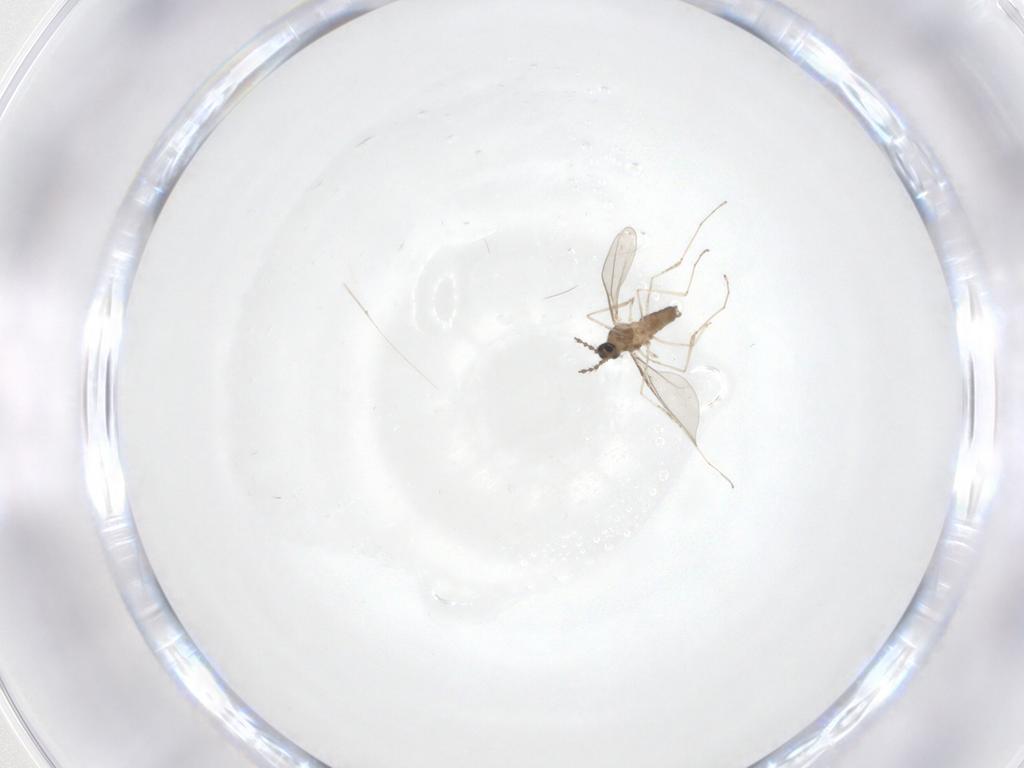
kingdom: Animalia
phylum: Arthropoda
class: Insecta
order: Diptera
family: Cecidomyiidae
